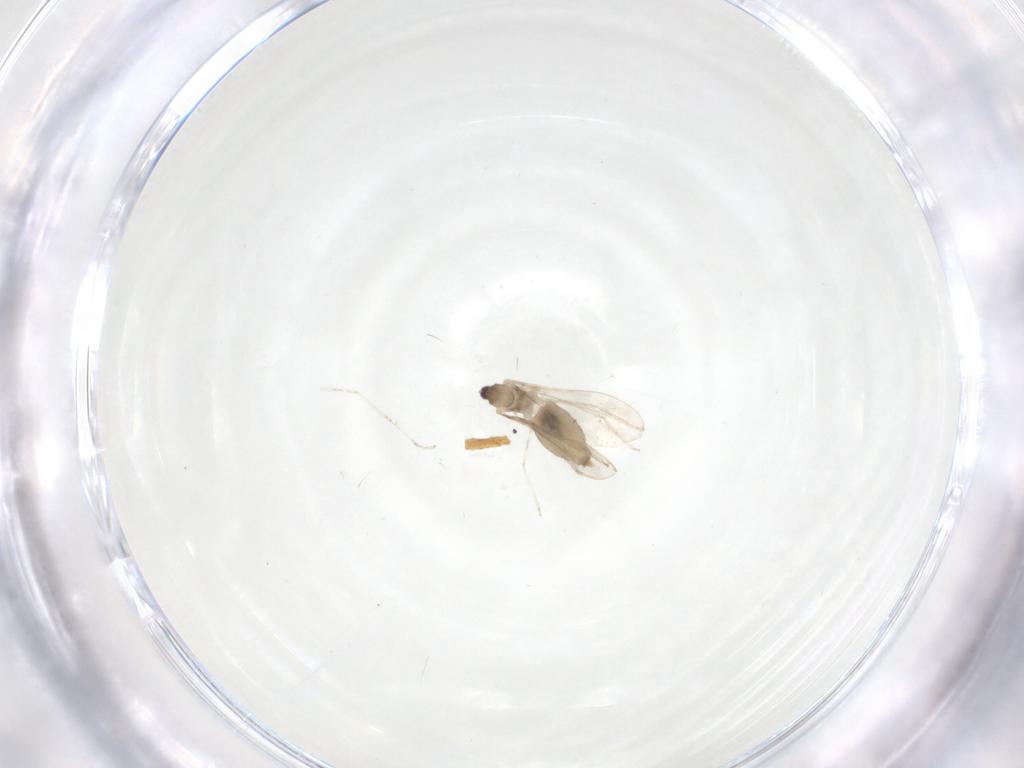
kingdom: Animalia
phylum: Arthropoda
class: Insecta
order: Diptera
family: Cecidomyiidae
